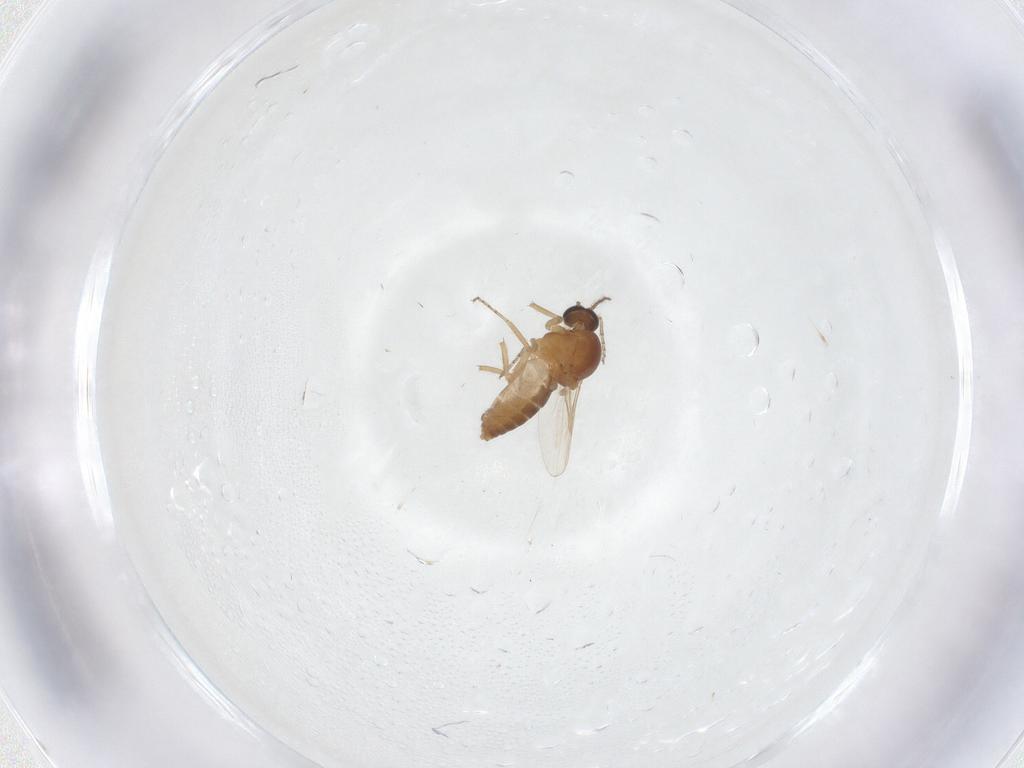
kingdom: Animalia
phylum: Arthropoda
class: Insecta
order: Diptera
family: Ceratopogonidae
